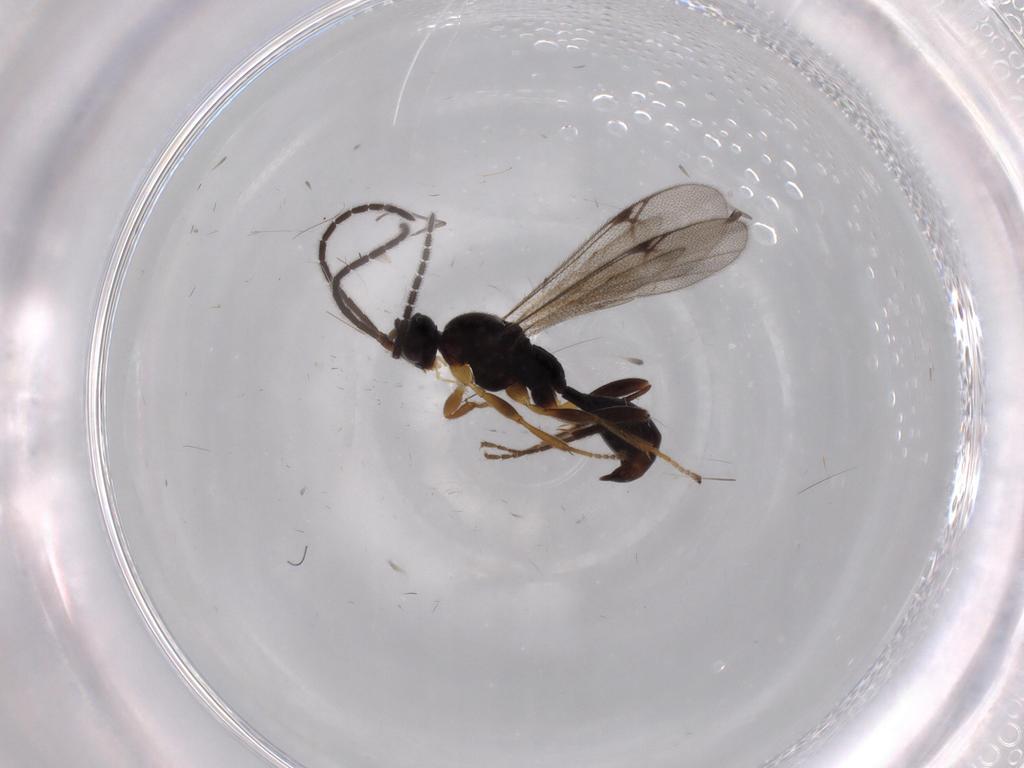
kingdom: Animalia
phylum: Arthropoda
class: Insecta
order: Hymenoptera
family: Proctotrupidae
